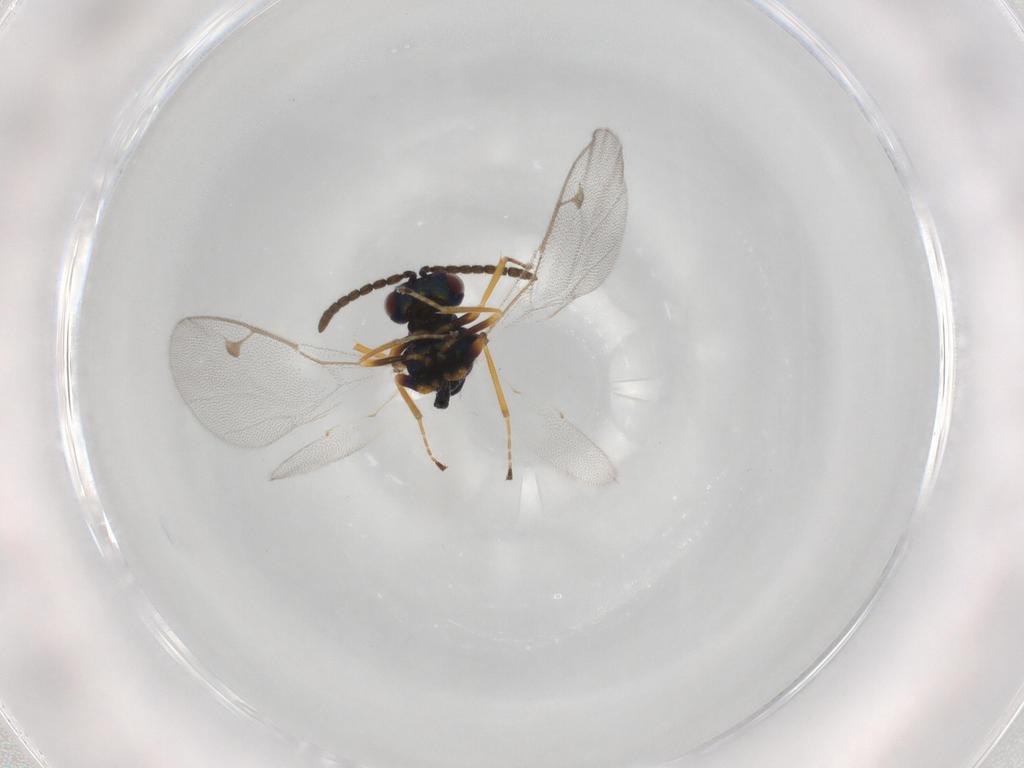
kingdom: Animalia
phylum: Arthropoda
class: Insecta
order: Hymenoptera
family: Pteromalidae
